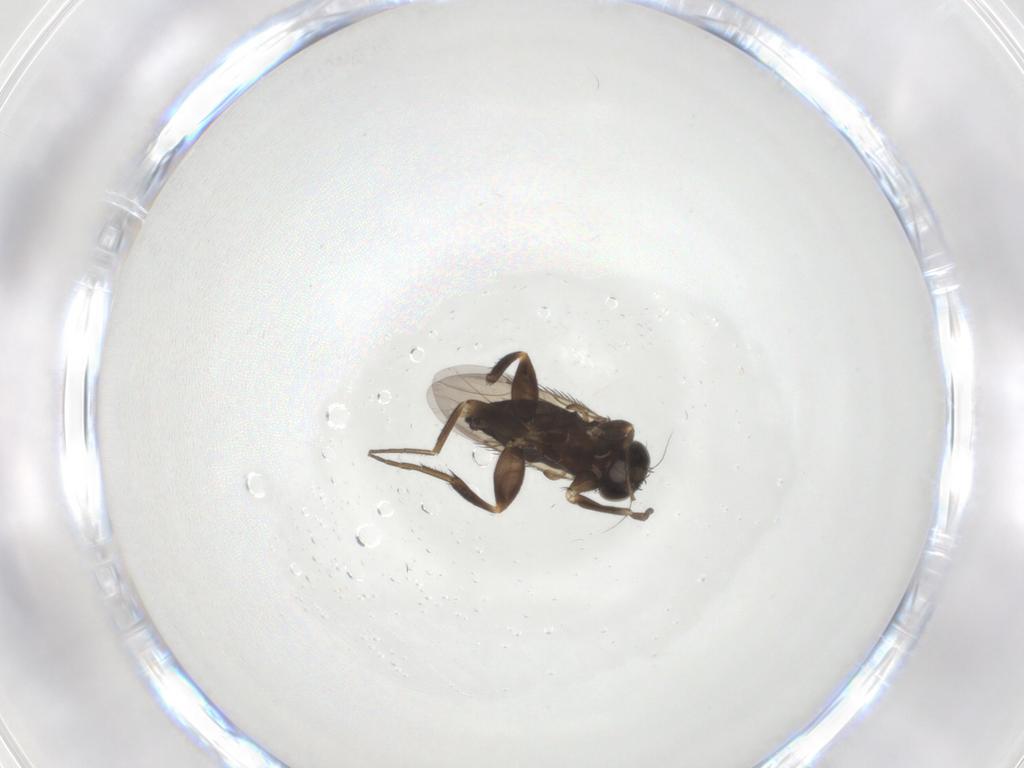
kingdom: Animalia
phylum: Arthropoda
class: Insecta
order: Diptera
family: Phoridae
